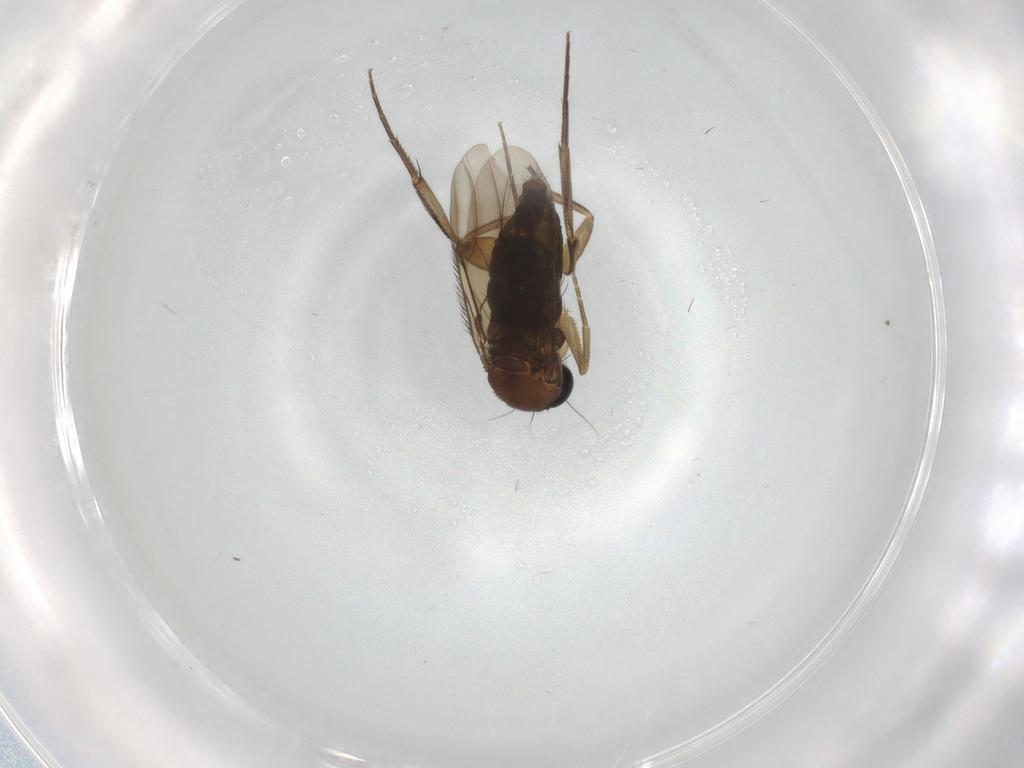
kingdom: Animalia
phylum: Arthropoda
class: Insecta
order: Diptera
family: Phoridae
